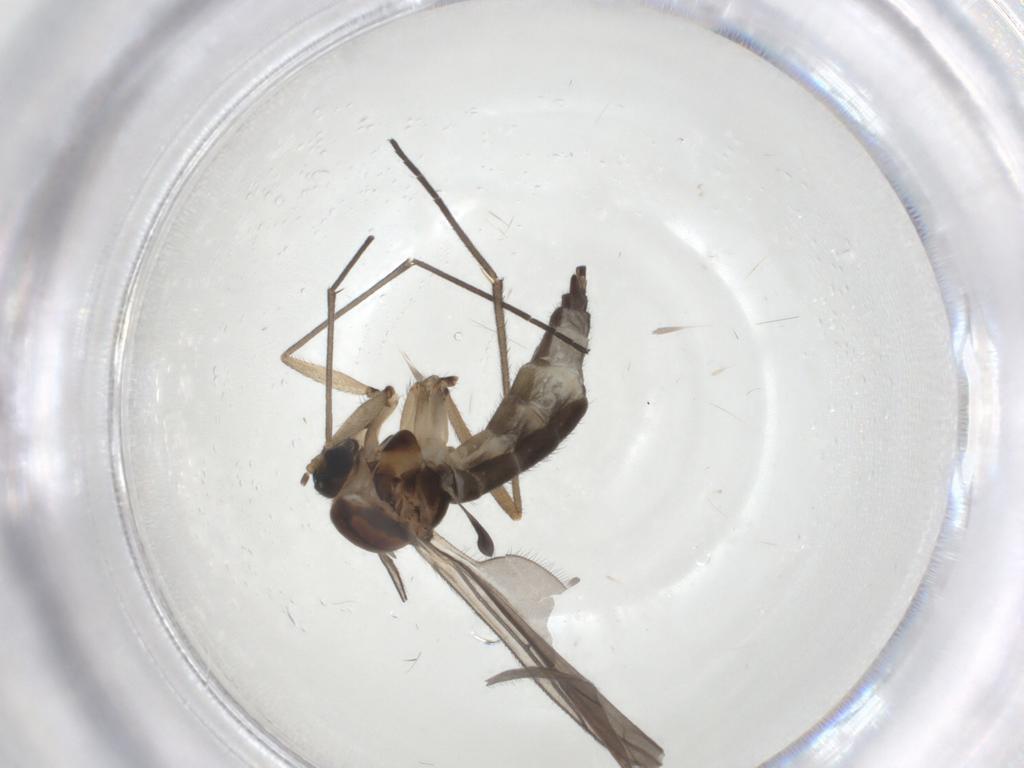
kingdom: Animalia
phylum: Arthropoda
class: Insecta
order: Diptera
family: Sciaridae
